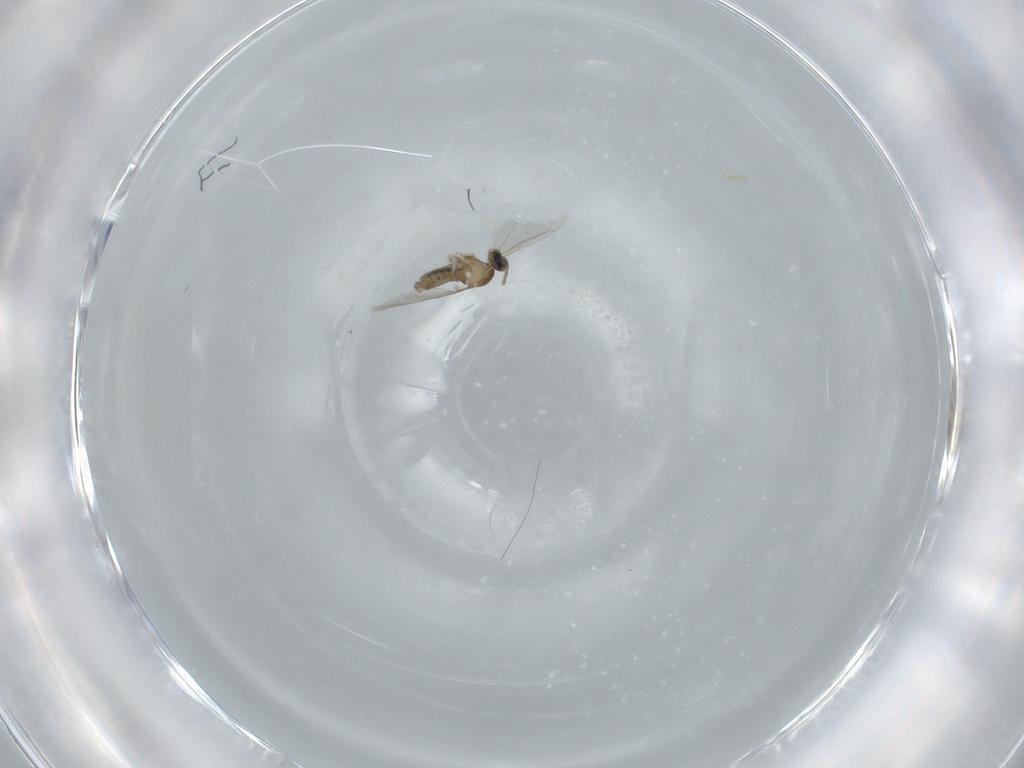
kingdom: Animalia
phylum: Arthropoda
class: Insecta
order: Diptera
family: Cecidomyiidae
